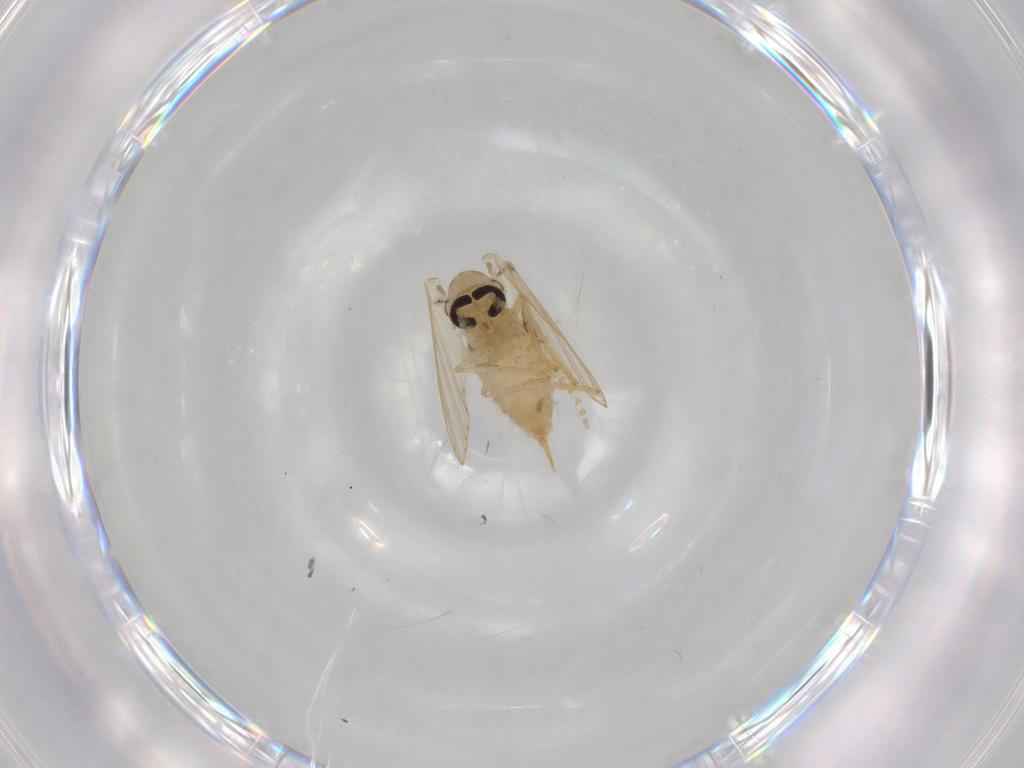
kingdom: Animalia
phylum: Arthropoda
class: Insecta
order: Diptera
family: Psychodidae
